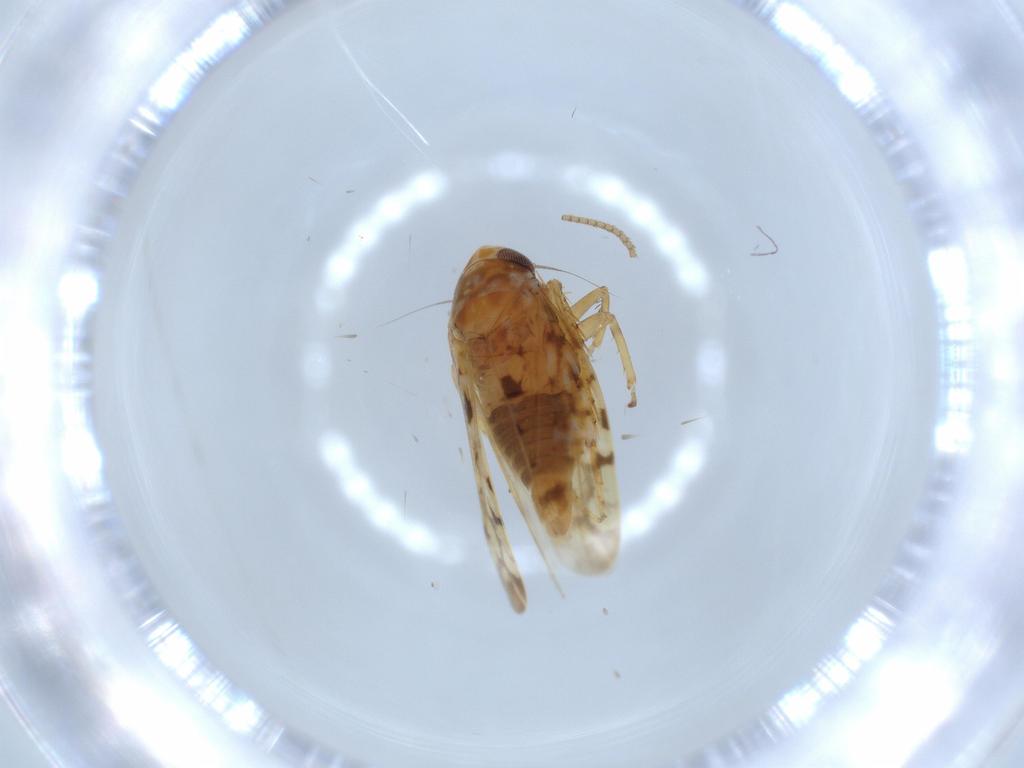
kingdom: Animalia
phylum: Arthropoda
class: Insecta
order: Hemiptera
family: Cicadellidae
